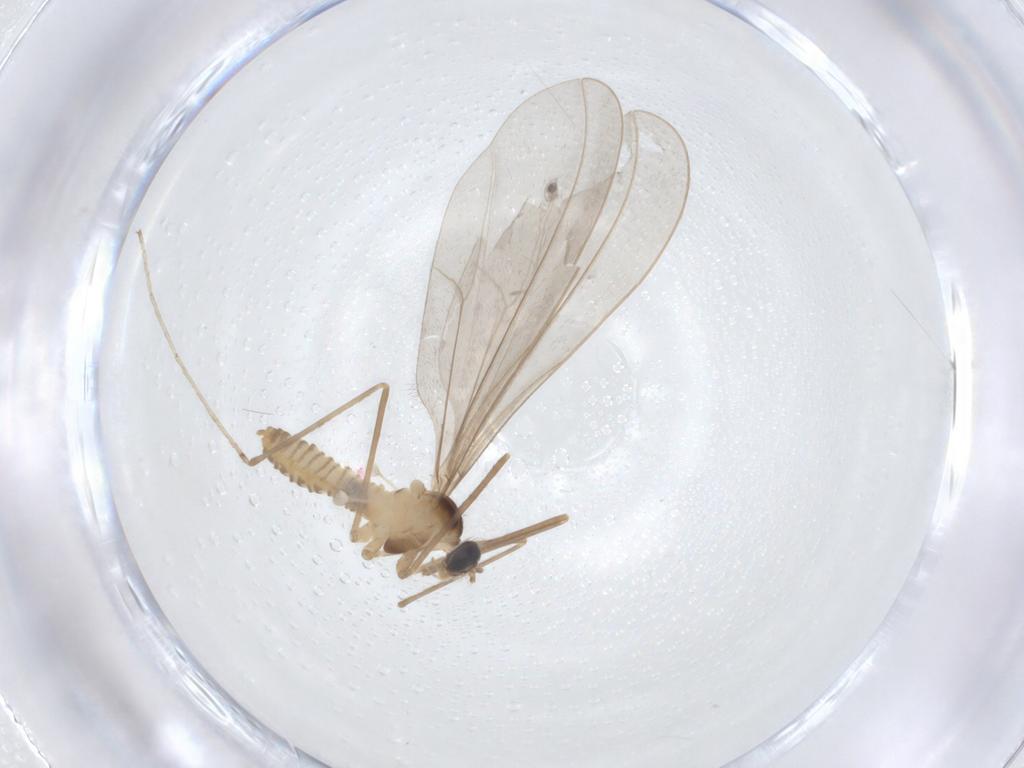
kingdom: Animalia
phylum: Arthropoda
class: Insecta
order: Diptera
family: Cecidomyiidae
